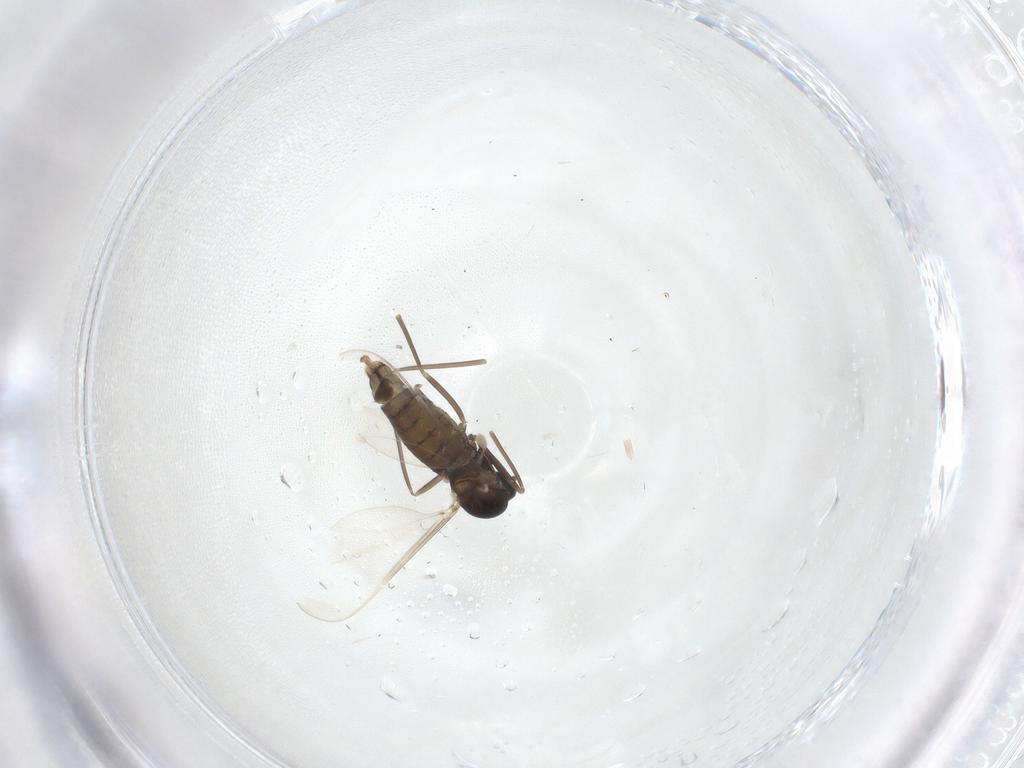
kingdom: Animalia
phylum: Arthropoda
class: Insecta
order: Diptera
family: Cecidomyiidae
